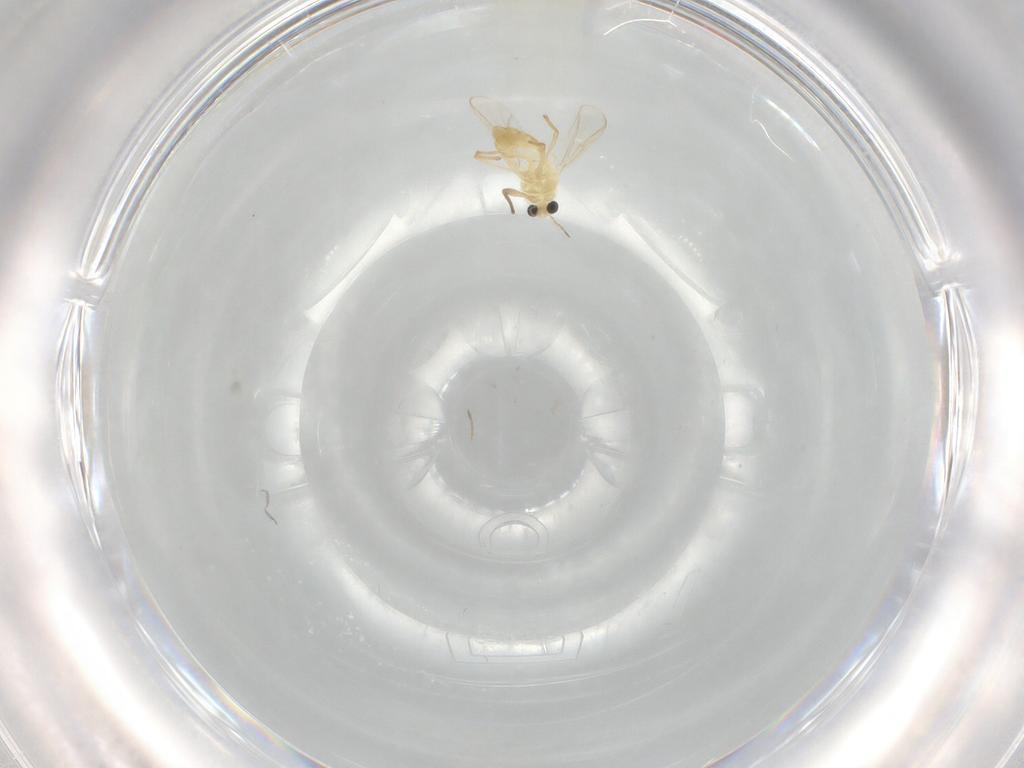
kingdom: Animalia
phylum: Arthropoda
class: Insecta
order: Diptera
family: Chironomidae
